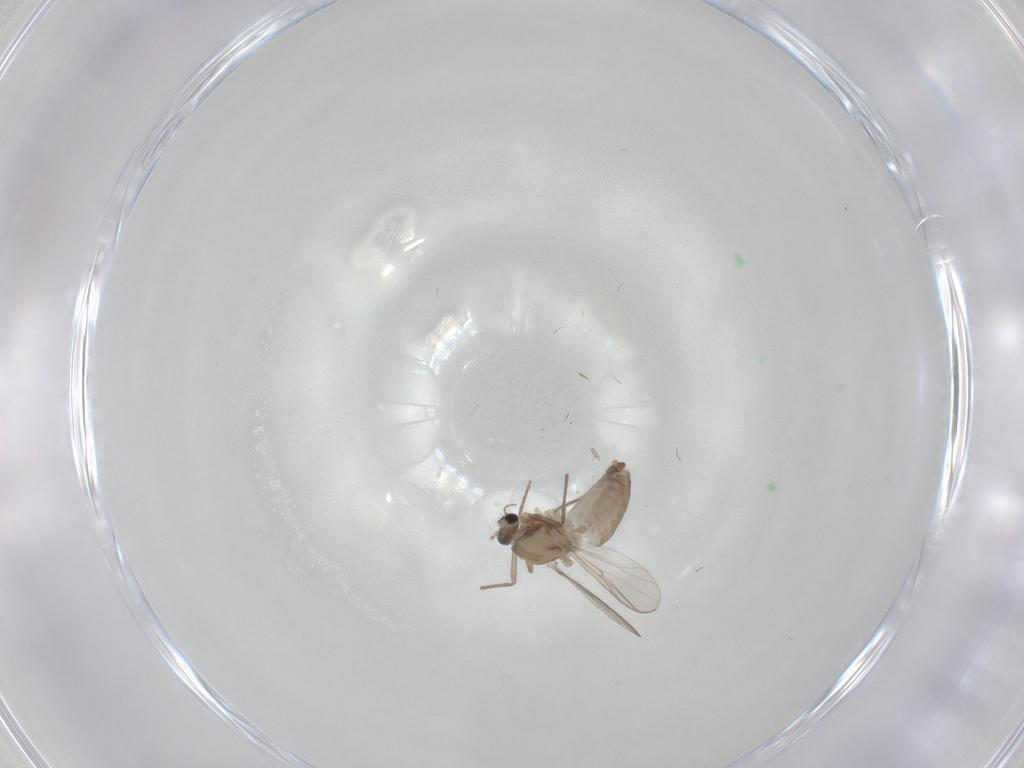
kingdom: Animalia
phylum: Arthropoda
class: Insecta
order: Diptera
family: Chironomidae
